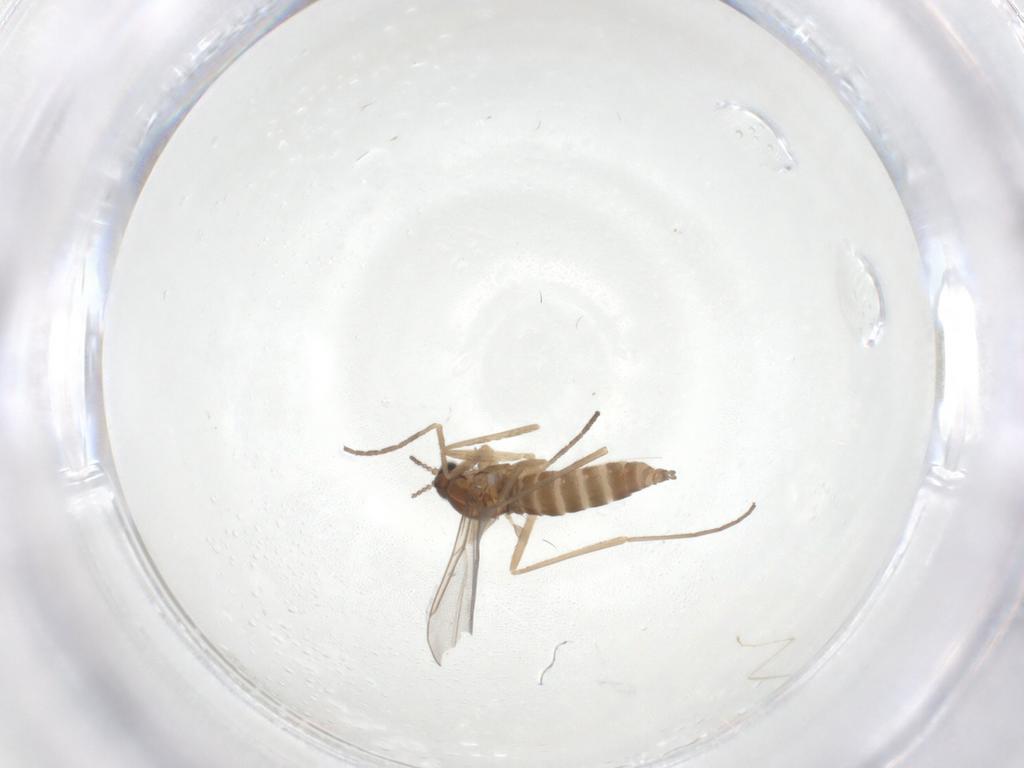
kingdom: Animalia
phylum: Arthropoda
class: Insecta
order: Diptera
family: Cecidomyiidae
